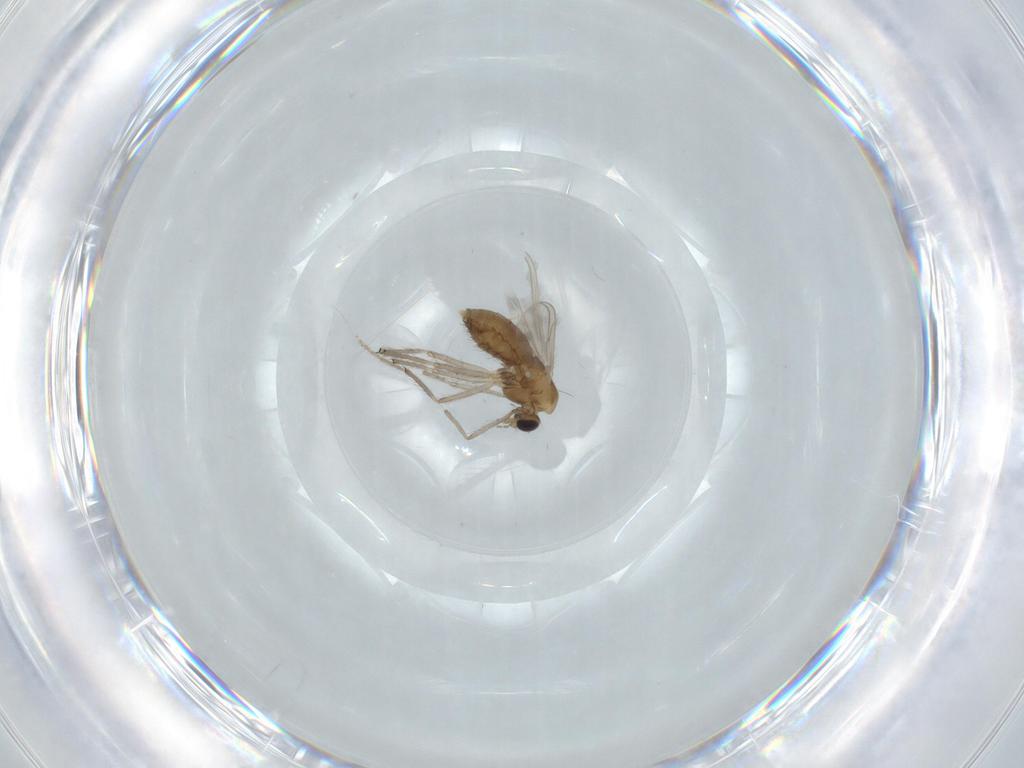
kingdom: Animalia
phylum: Arthropoda
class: Insecta
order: Diptera
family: Chironomidae
